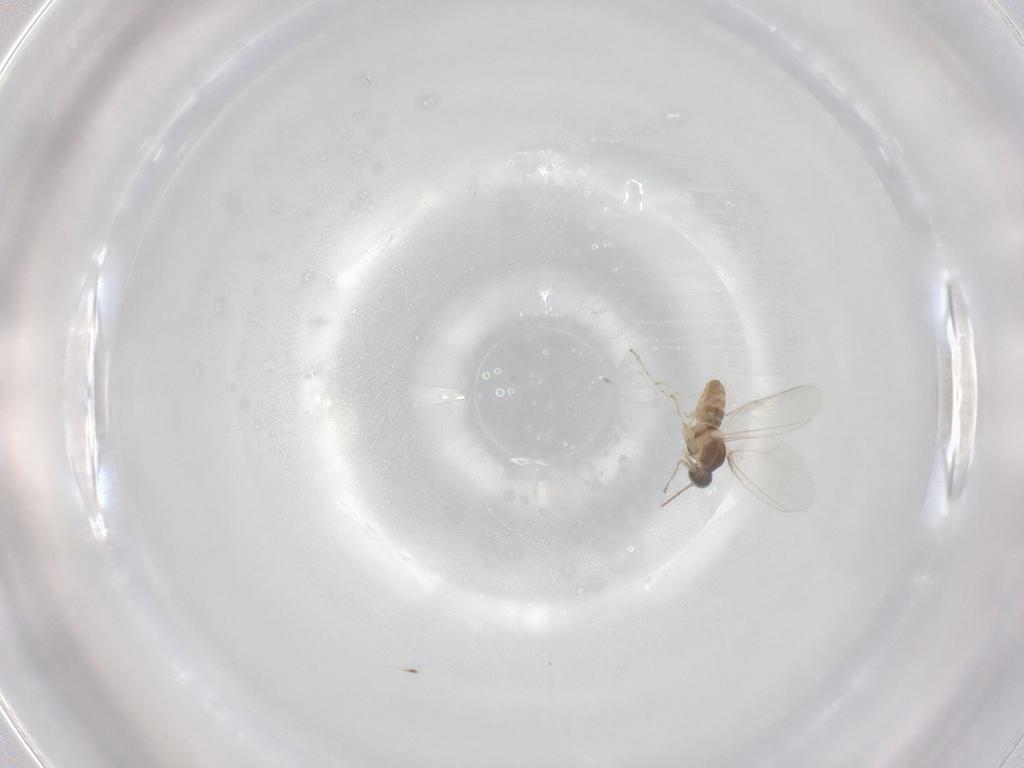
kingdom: Animalia
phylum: Arthropoda
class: Insecta
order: Diptera
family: Cecidomyiidae
